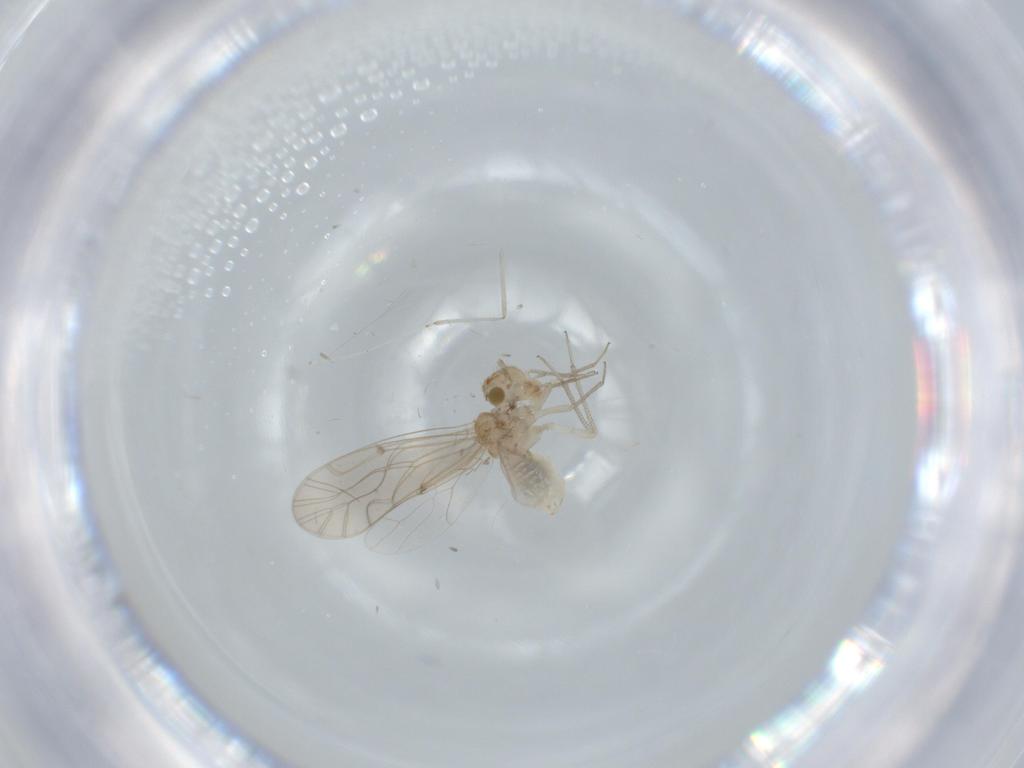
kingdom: Animalia
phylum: Arthropoda
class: Insecta
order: Psocodea
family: Lachesillidae
